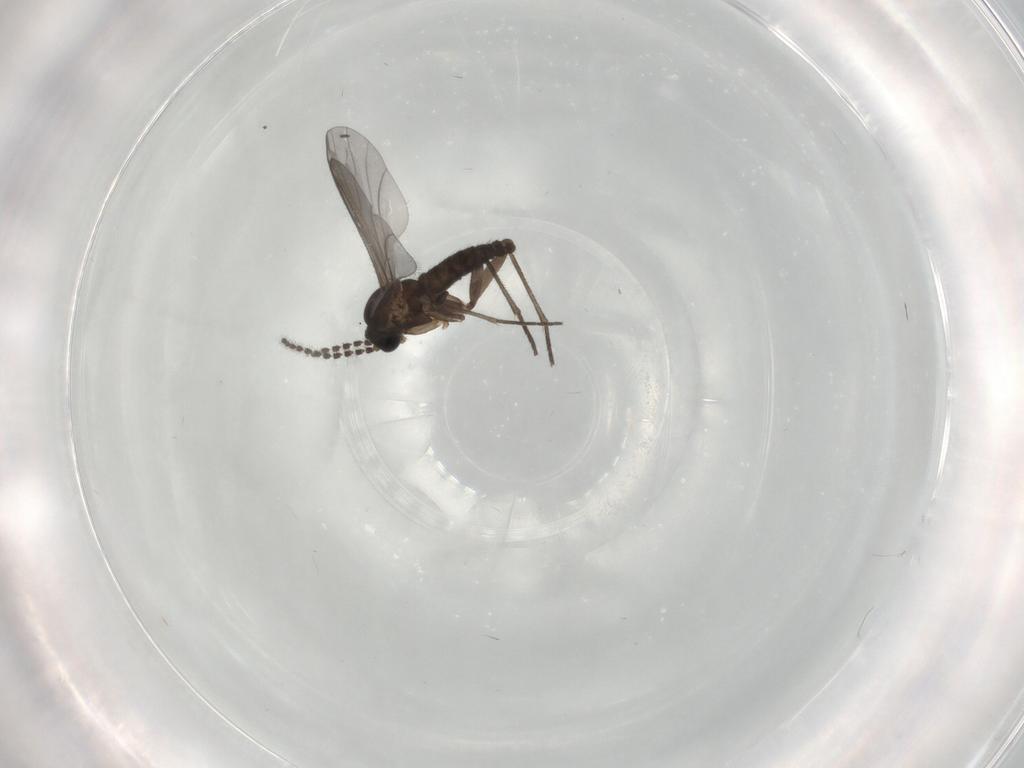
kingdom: Animalia
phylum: Arthropoda
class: Insecta
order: Diptera
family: Sciaridae
